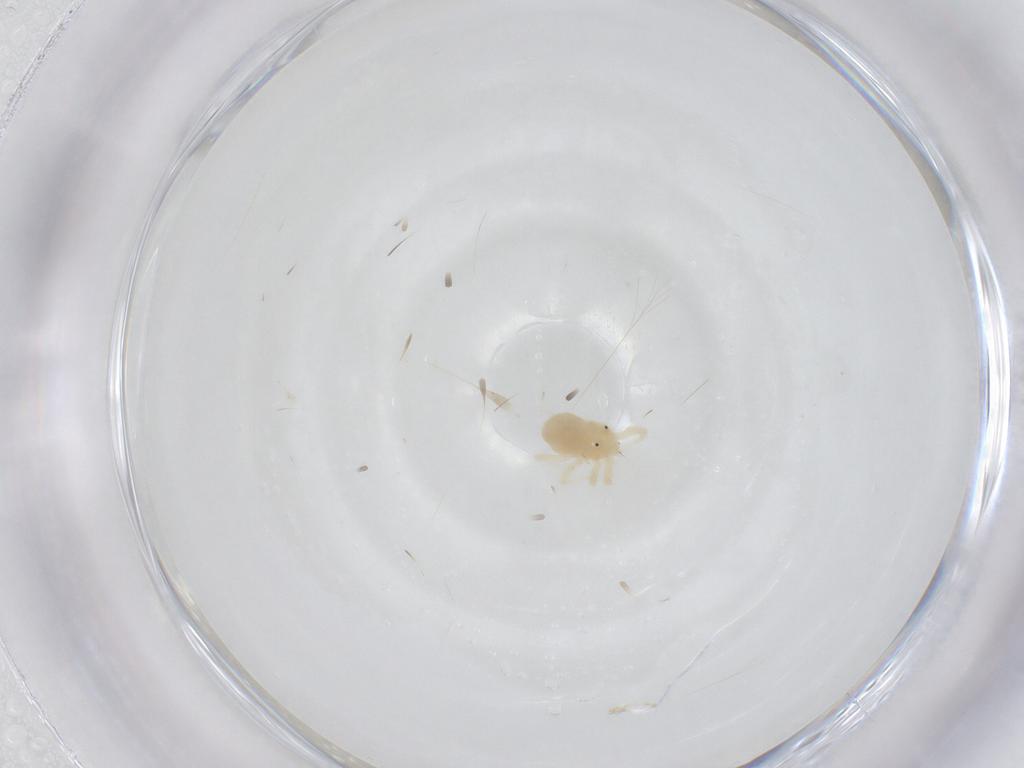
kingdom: Animalia
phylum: Arthropoda
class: Arachnida
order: Trombidiformes
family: Anystidae
